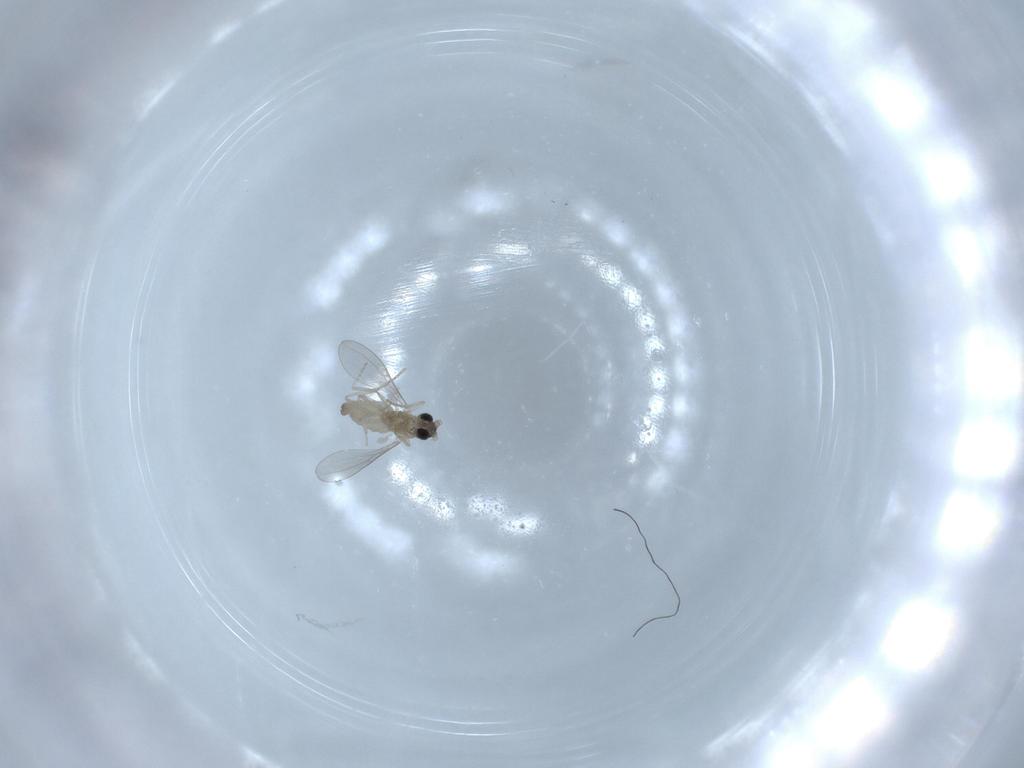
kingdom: Animalia
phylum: Arthropoda
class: Insecta
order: Diptera
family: Cecidomyiidae
